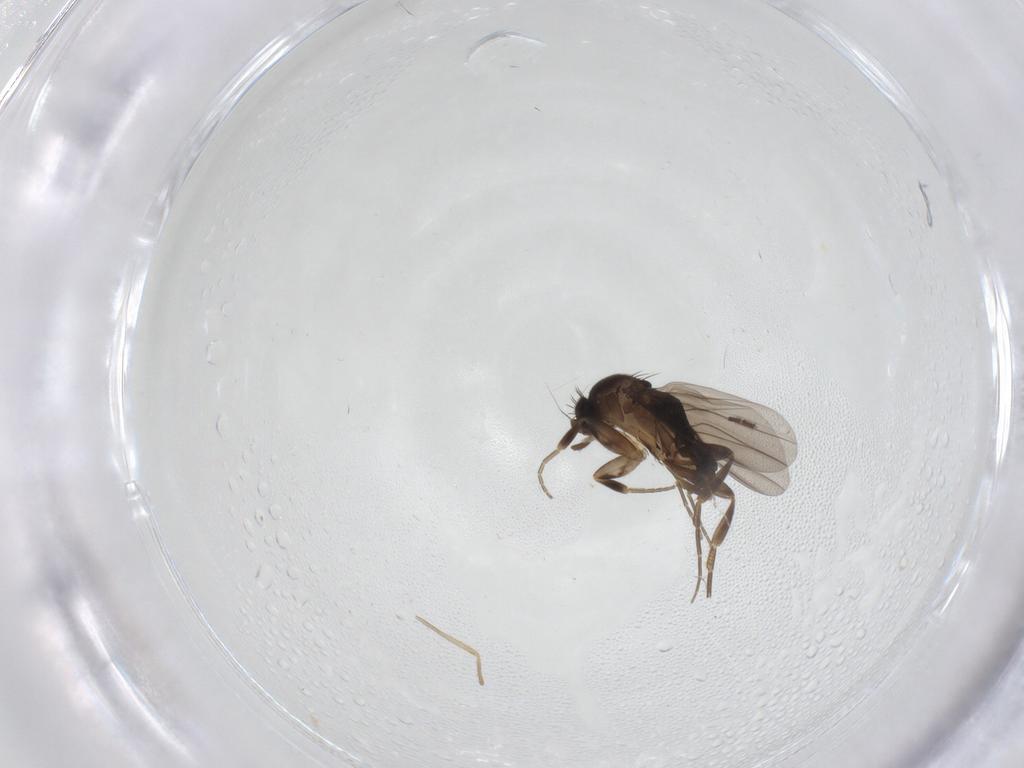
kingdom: Animalia
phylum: Arthropoda
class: Insecta
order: Diptera
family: Phoridae
